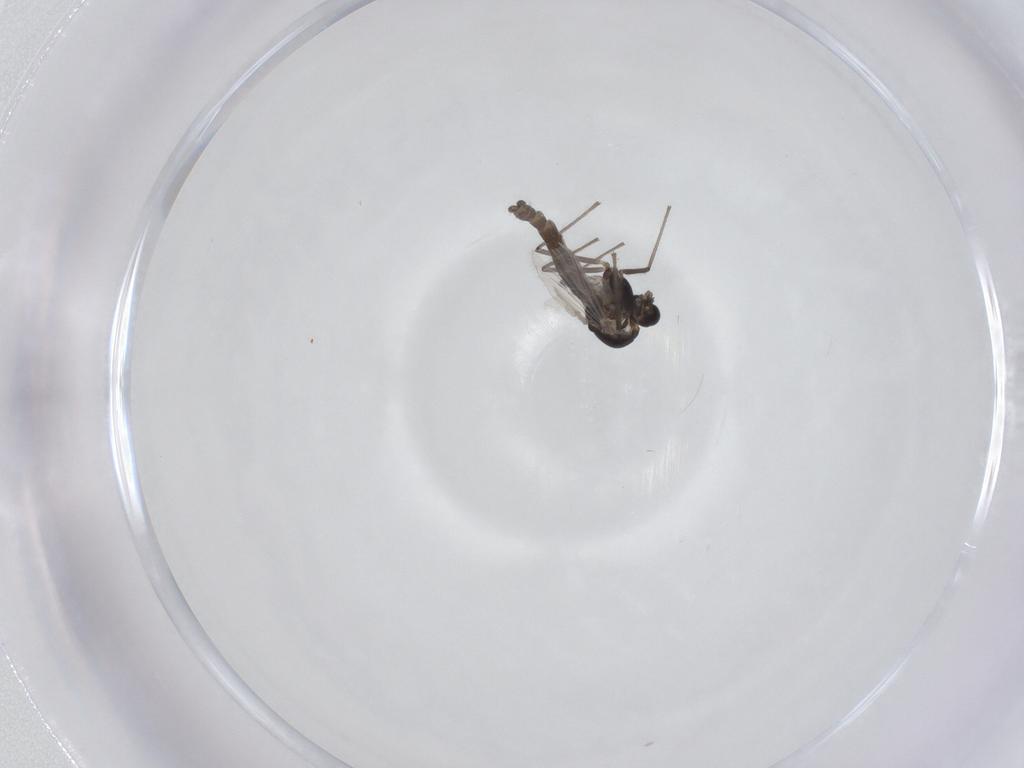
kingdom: Animalia
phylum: Arthropoda
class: Insecta
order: Diptera
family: Chironomidae
